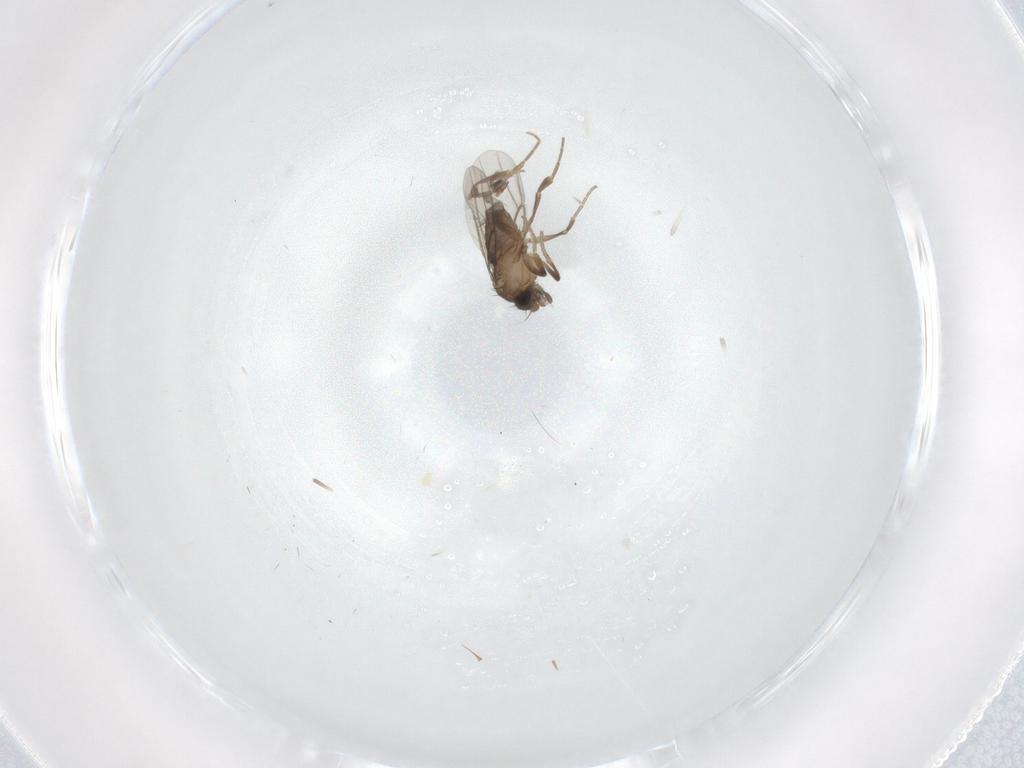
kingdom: Animalia
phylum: Arthropoda
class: Insecta
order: Diptera
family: Phoridae
